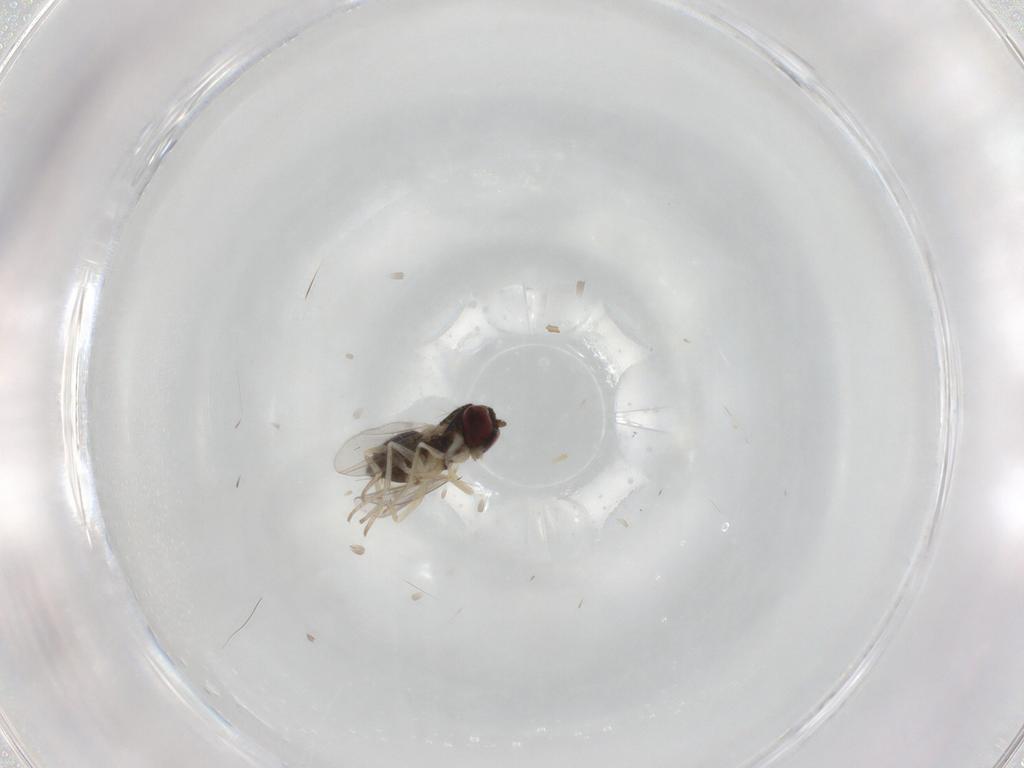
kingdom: Animalia
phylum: Arthropoda
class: Insecta
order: Diptera
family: Dolichopodidae
